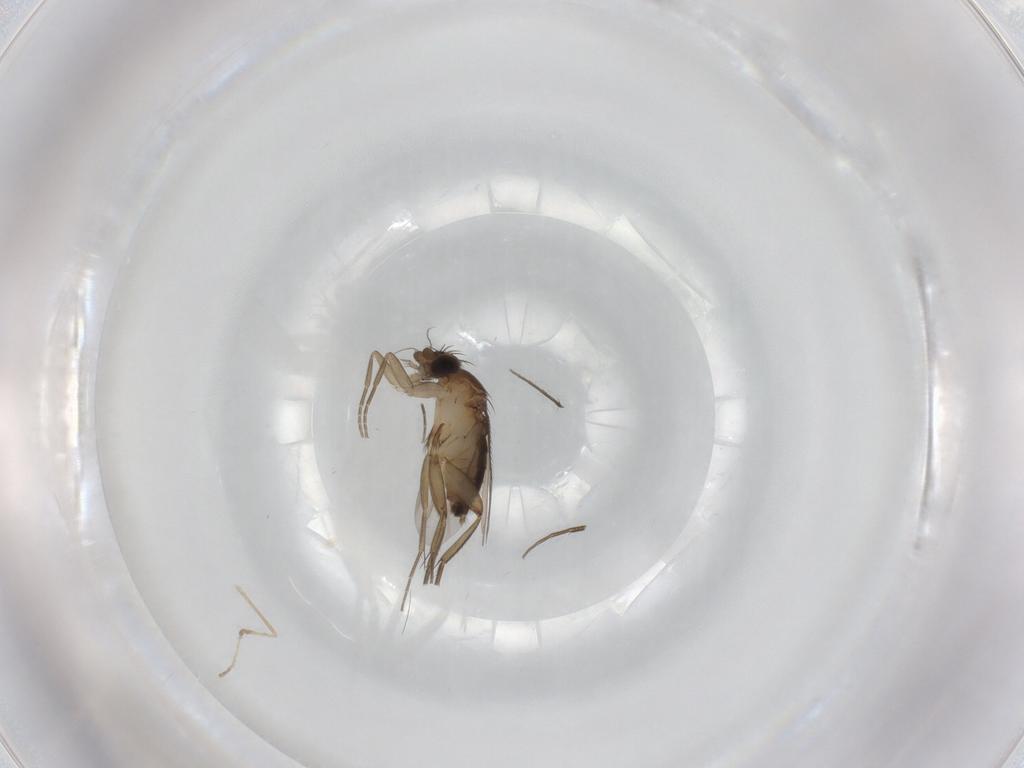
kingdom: Animalia
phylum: Arthropoda
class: Insecta
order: Diptera
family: Phoridae
